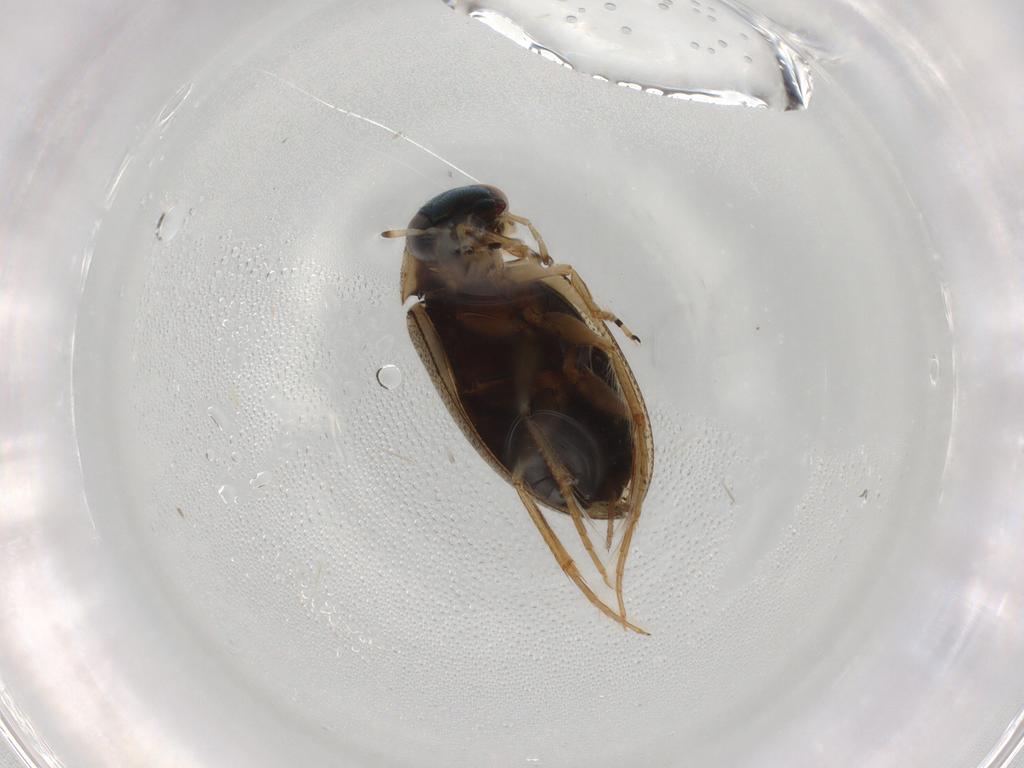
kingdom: Animalia
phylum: Arthropoda
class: Insecta
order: Coleoptera
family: Hydrophilidae
